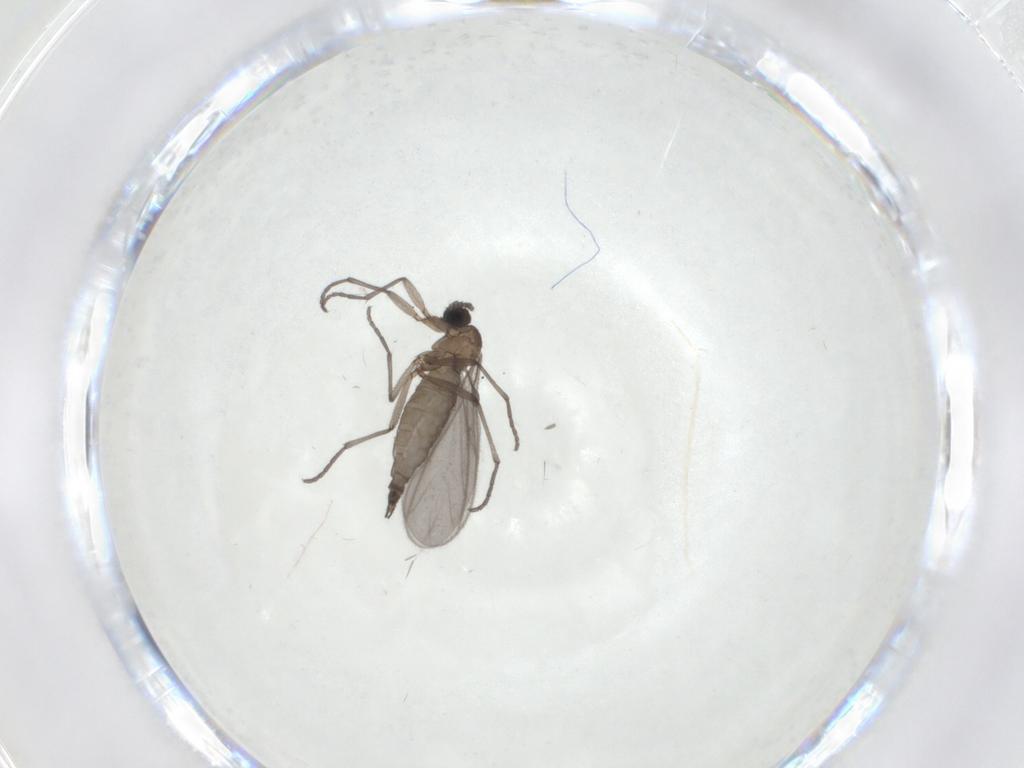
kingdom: Animalia
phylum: Arthropoda
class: Insecta
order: Diptera
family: Sciaridae
